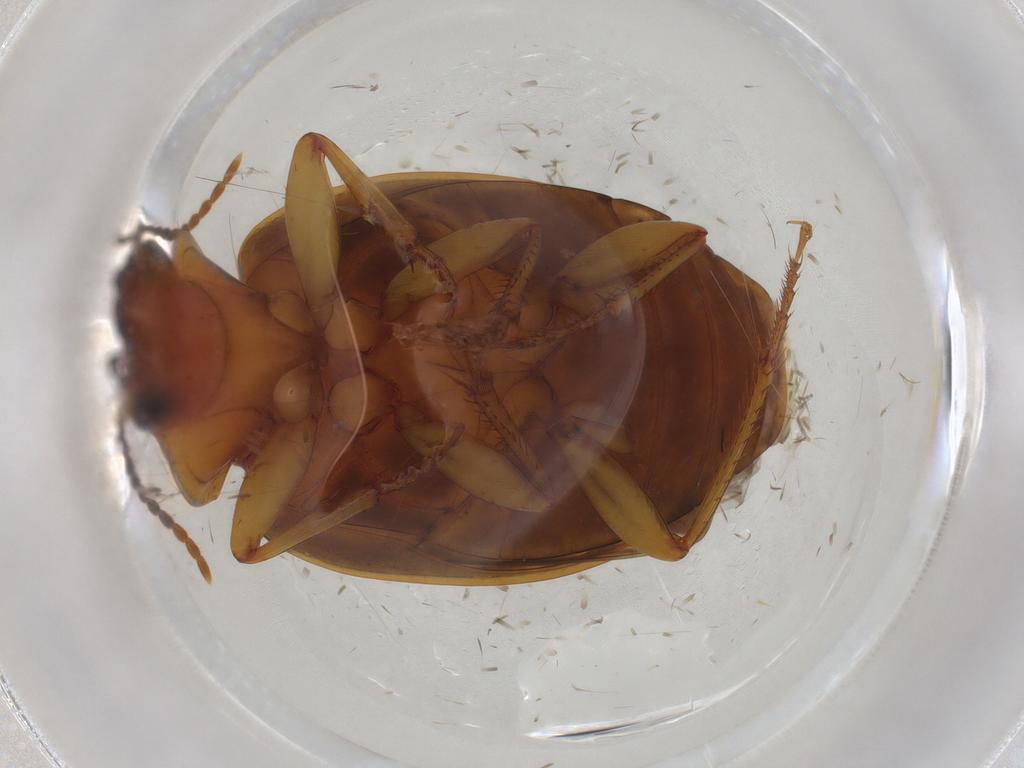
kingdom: Animalia
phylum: Arthropoda
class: Insecta
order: Coleoptera
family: Carabidae
